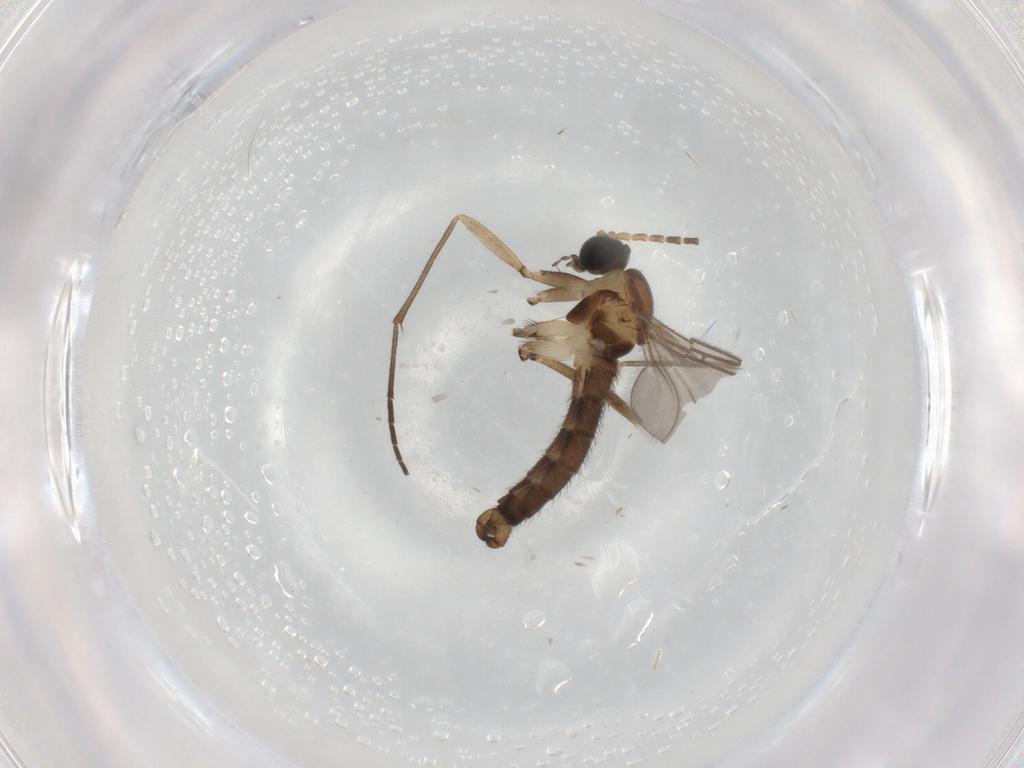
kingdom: Animalia
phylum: Arthropoda
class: Insecta
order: Diptera
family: Sciaridae
